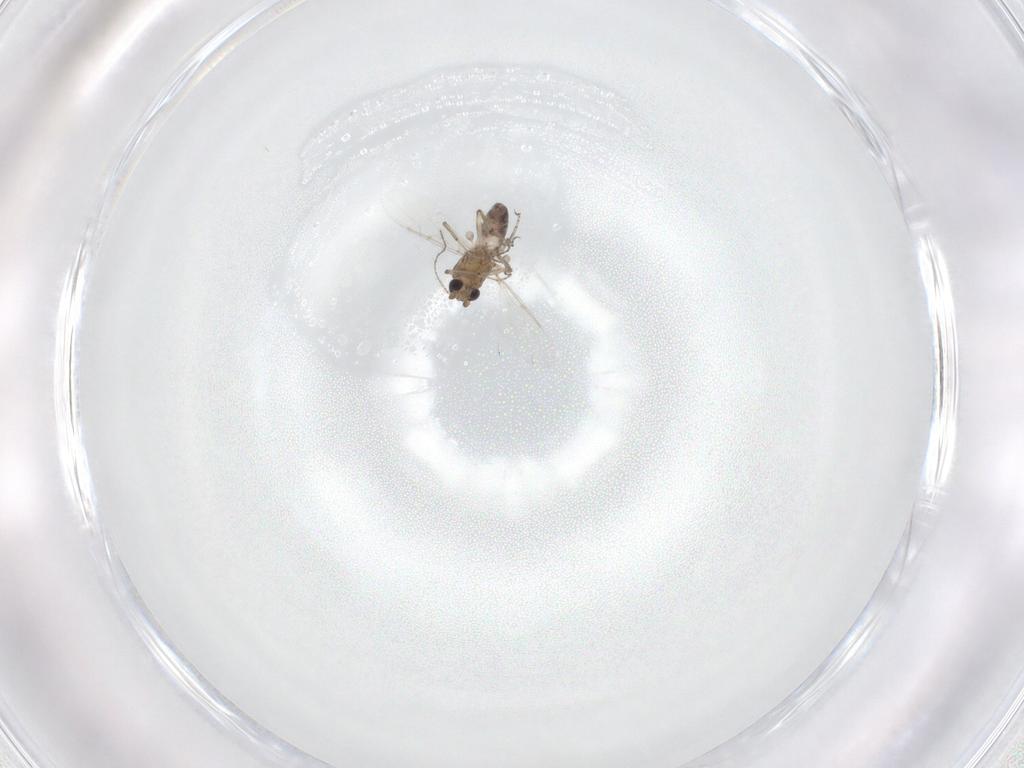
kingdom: Animalia
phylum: Arthropoda
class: Insecta
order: Diptera
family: Ceratopogonidae
